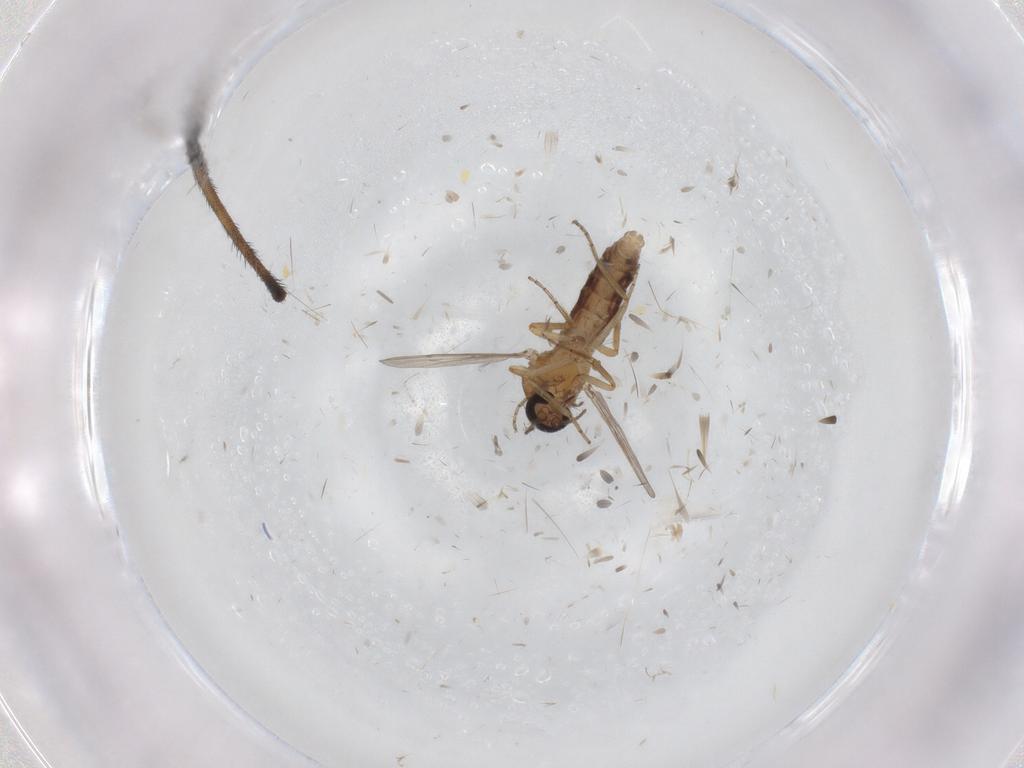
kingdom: Animalia
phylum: Arthropoda
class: Insecta
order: Diptera
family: Ceratopogonidae
